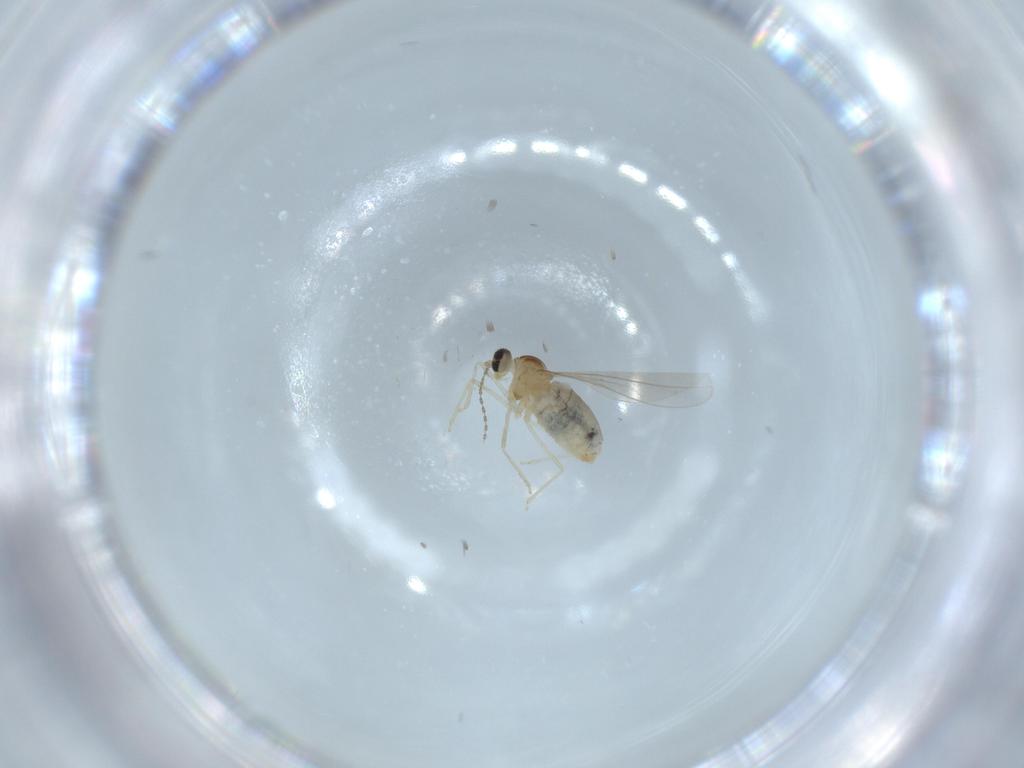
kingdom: Animalia
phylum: Arthropoda
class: Insecta
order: Diptera
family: Cecidomyiidae
